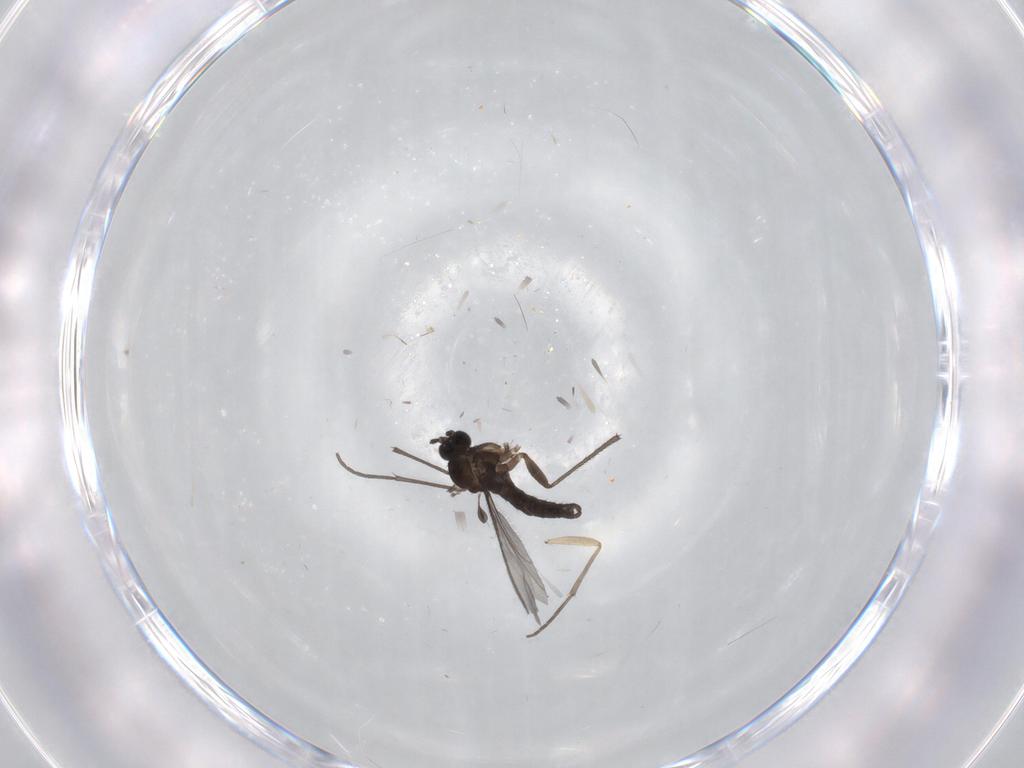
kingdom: Animalia
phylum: Arthropoda
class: Insecta
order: Diptera
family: Sciaridae
